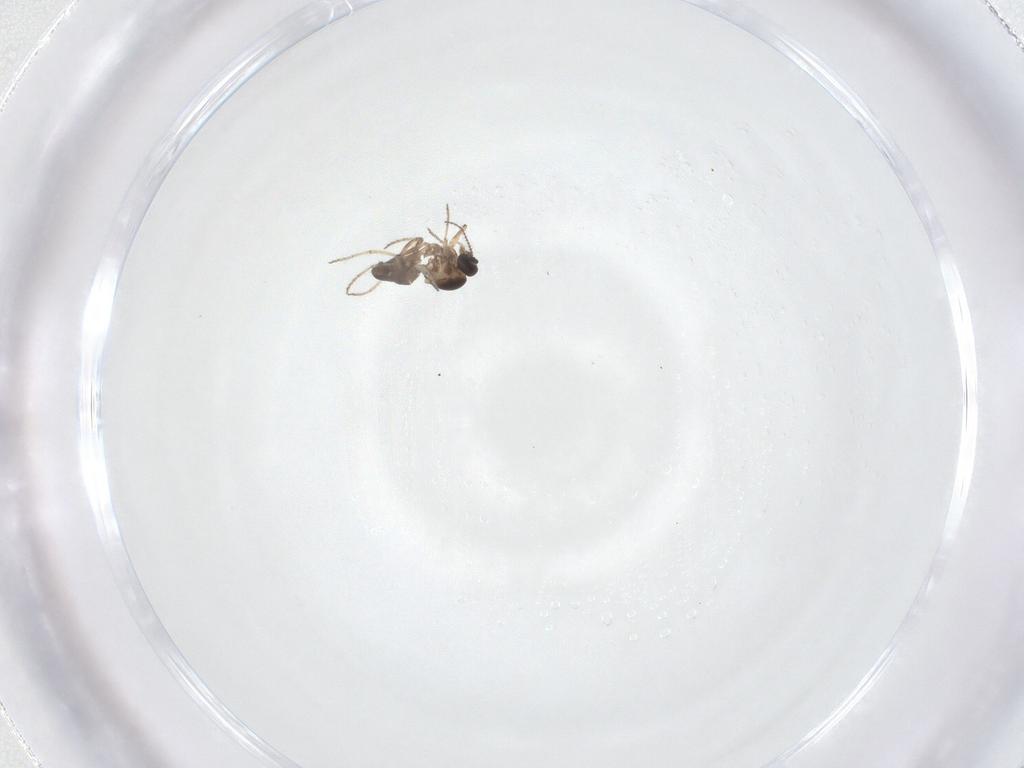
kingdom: Animalia
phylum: Arthropoda
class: Insecta
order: Diptera
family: Ceratopogonidae
